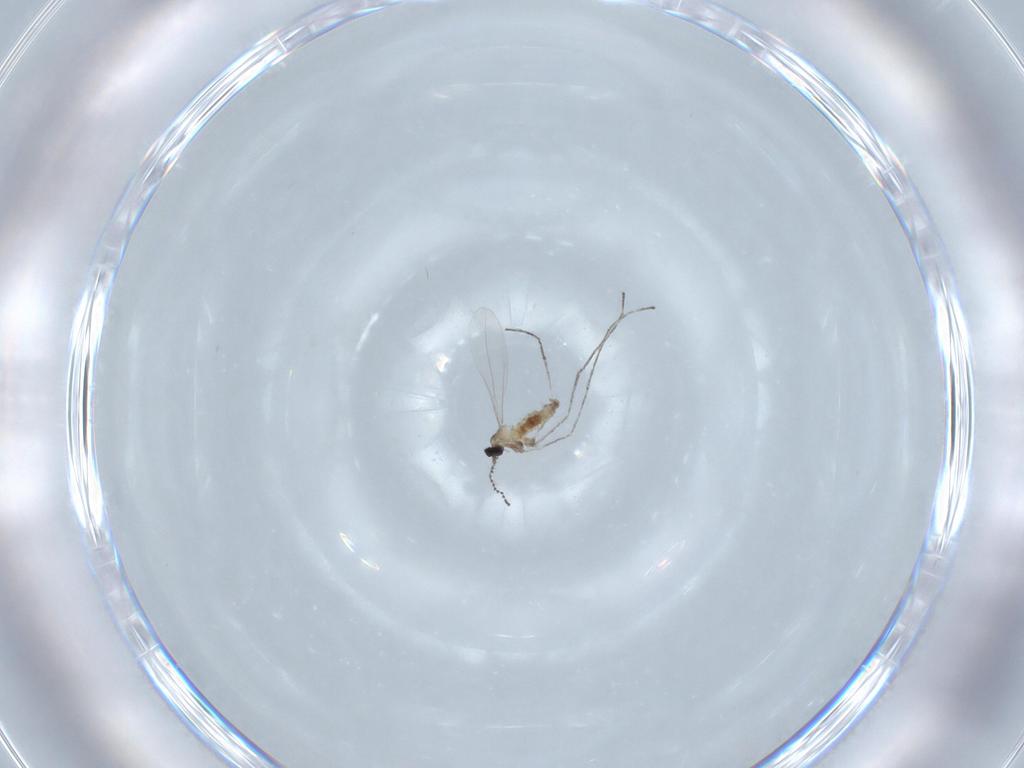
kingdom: Animalia
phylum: Arthropoda
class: Insecta
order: Diptera
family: Cecidomyiidae
